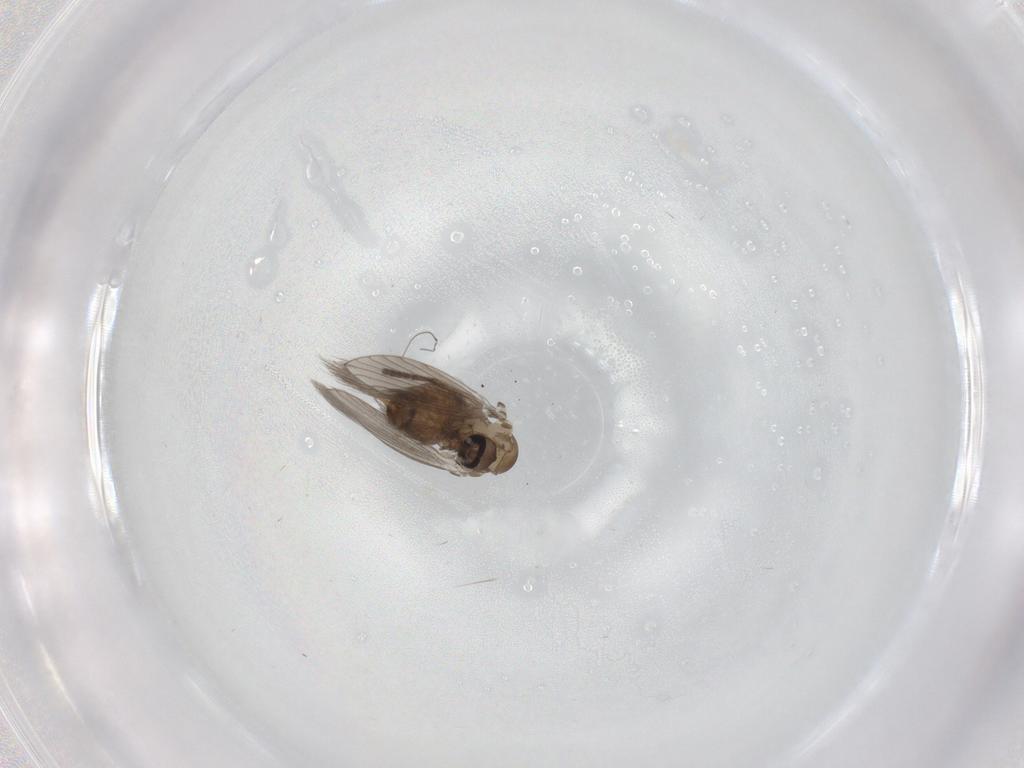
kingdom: Animalia
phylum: Arthropoda
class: Insecta
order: Diptera
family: Psychodidae
